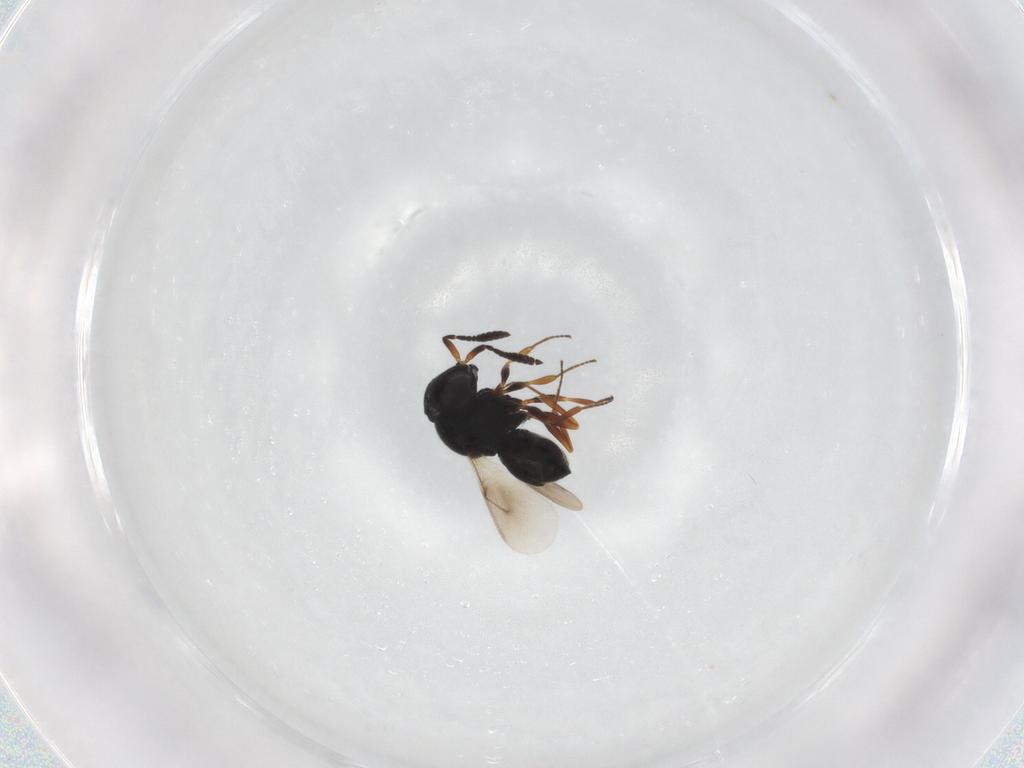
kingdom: Animalia
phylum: Arthropoda
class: Insecta
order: Hymenoptera
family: Scelionidae
